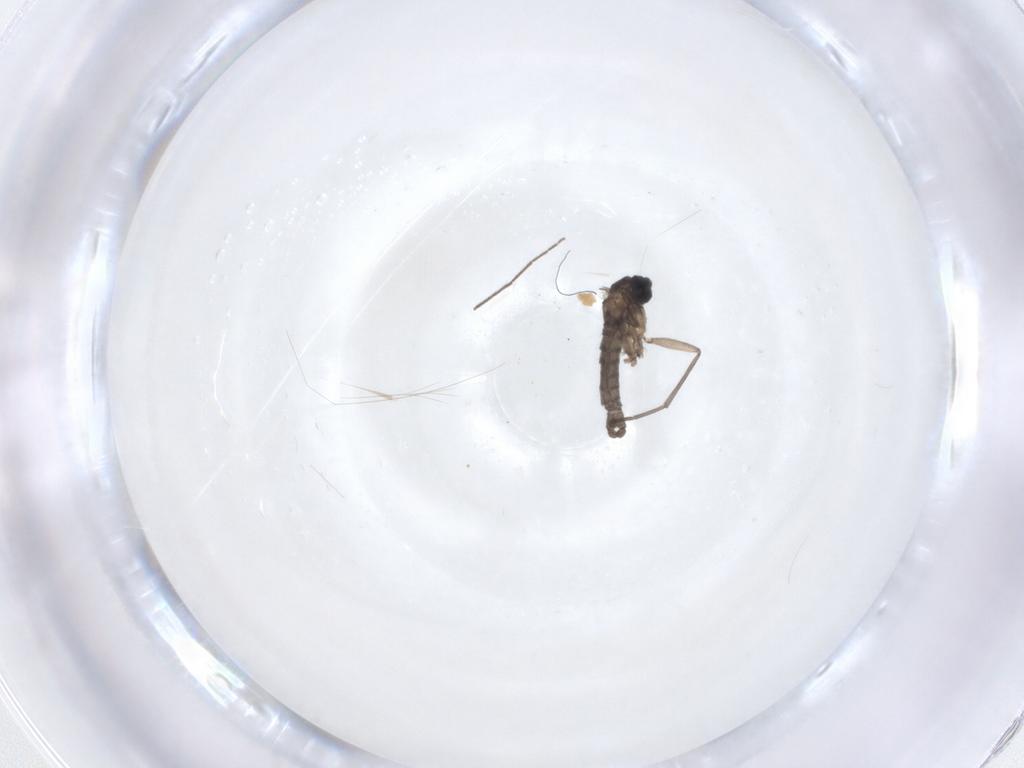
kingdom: Animalia
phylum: Arthropoda
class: Insecta
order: Diptera
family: Sciaridae
